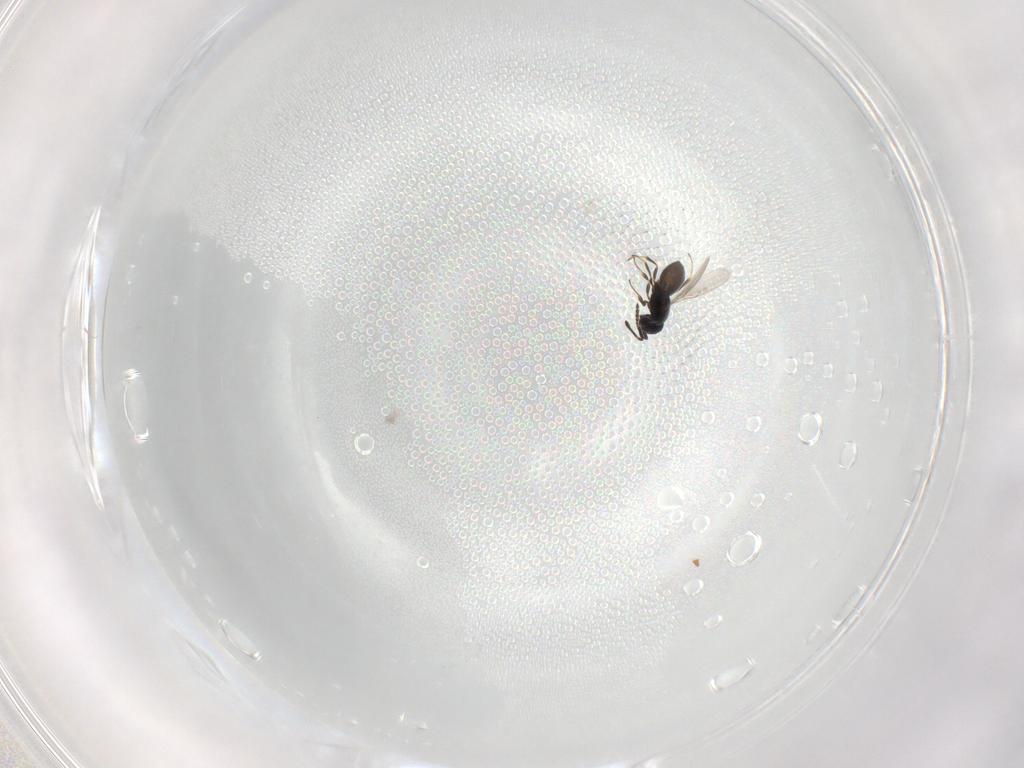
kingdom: Animalia
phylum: Arthropoda
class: Insecta
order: Hymenoptera
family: Scelionidae
